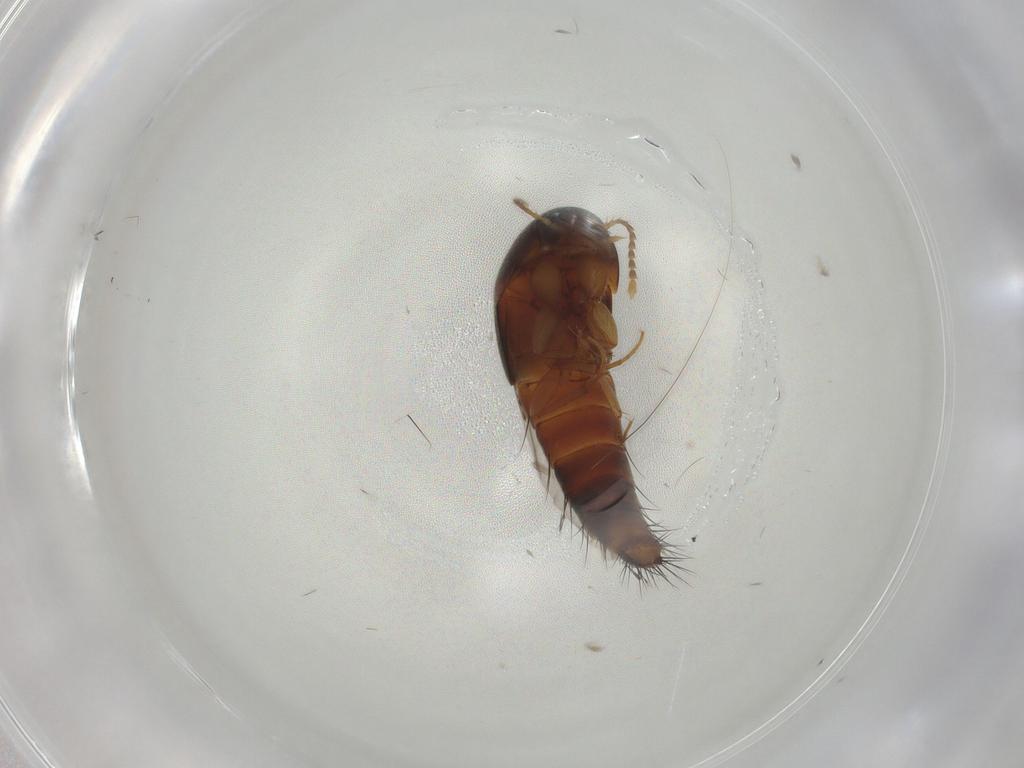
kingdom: Animalia
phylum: Arthropoda
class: Insecta
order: Coleoptera
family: Staphylinidae
